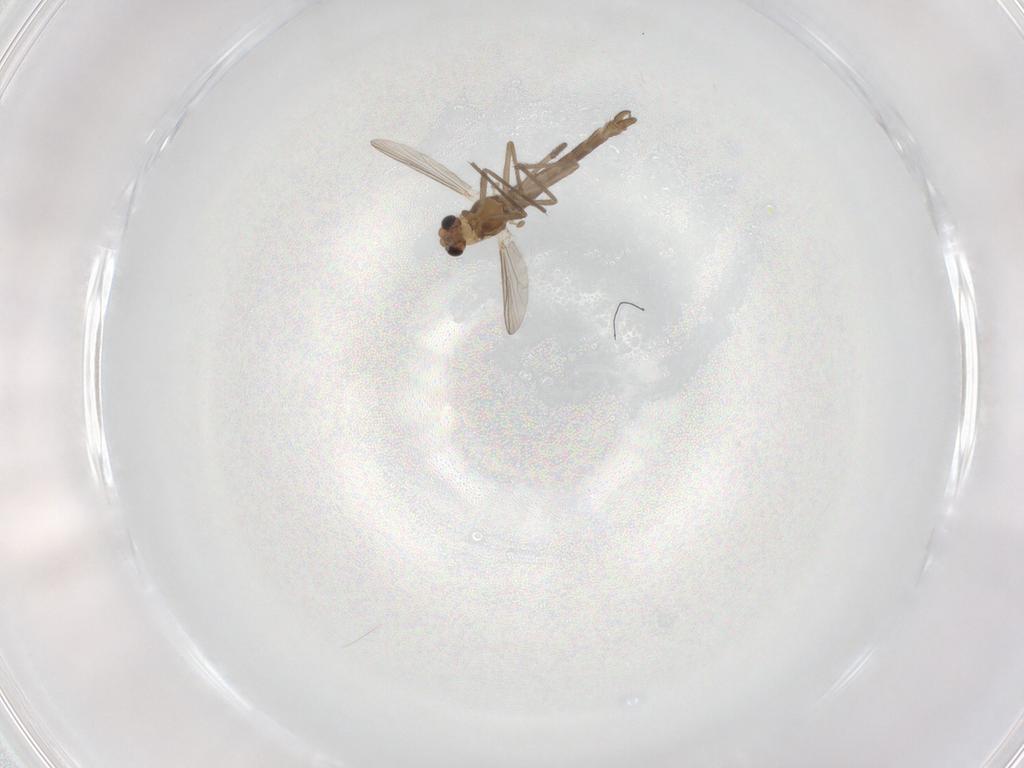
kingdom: Animalia
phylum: Arthropoda
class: Insecta
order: Diptera
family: Chironomidae
